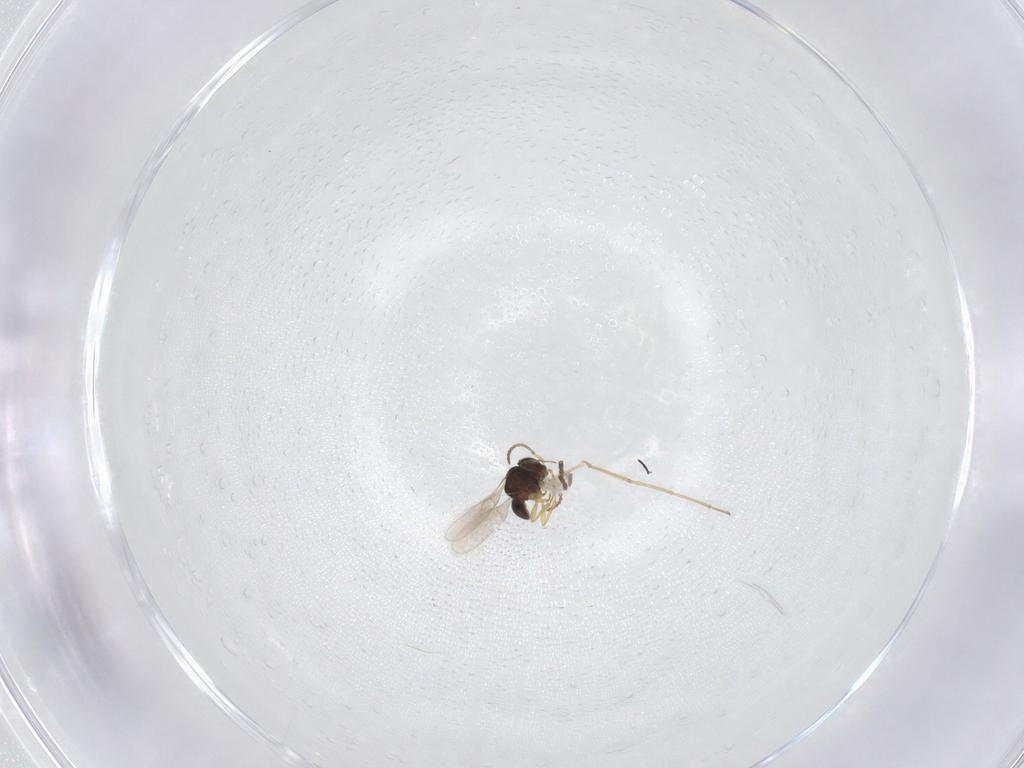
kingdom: Animalia
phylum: Arthropoda
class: Insecta
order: Hymenoptera
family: Scelionidae
